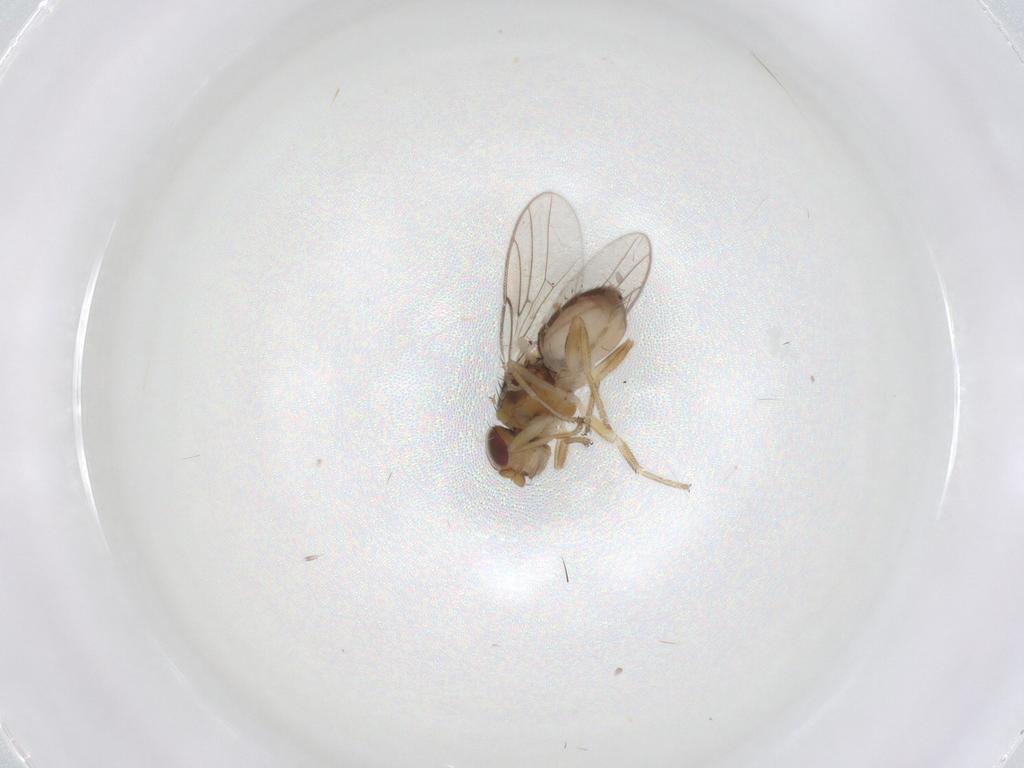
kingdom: Animalia
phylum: Arthropoda
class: Insecta
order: Diptera
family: Chloropidae
